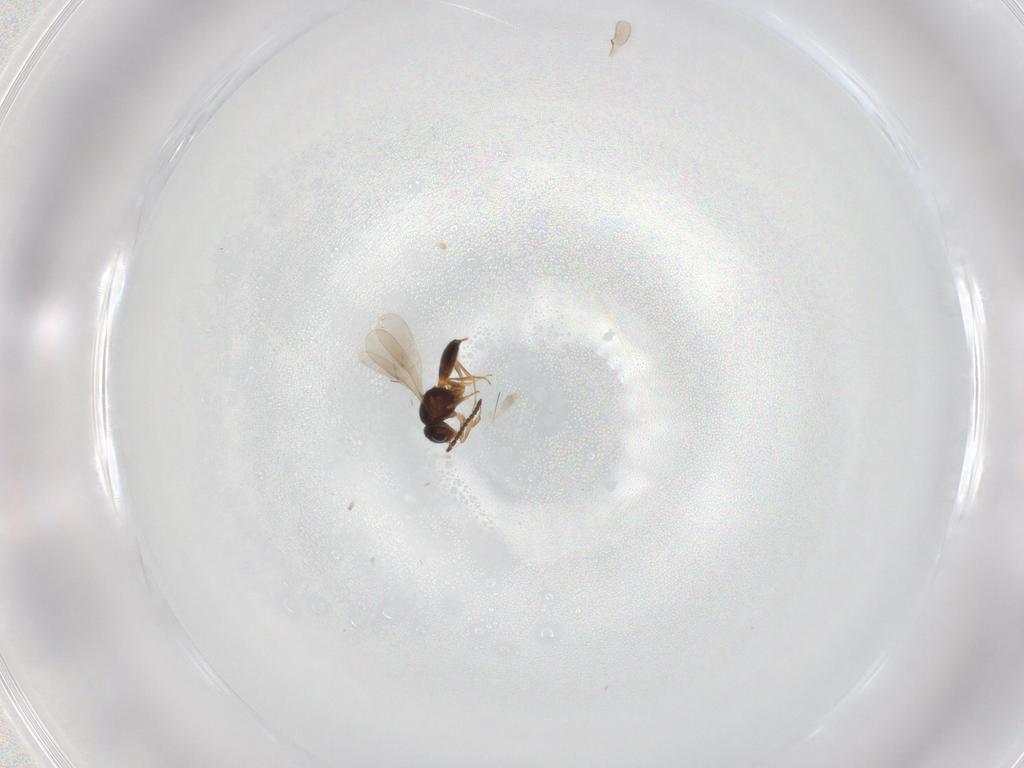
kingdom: Animalia
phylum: Arthropoda
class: Insecta
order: Hymenoptera
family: Scelionidae
